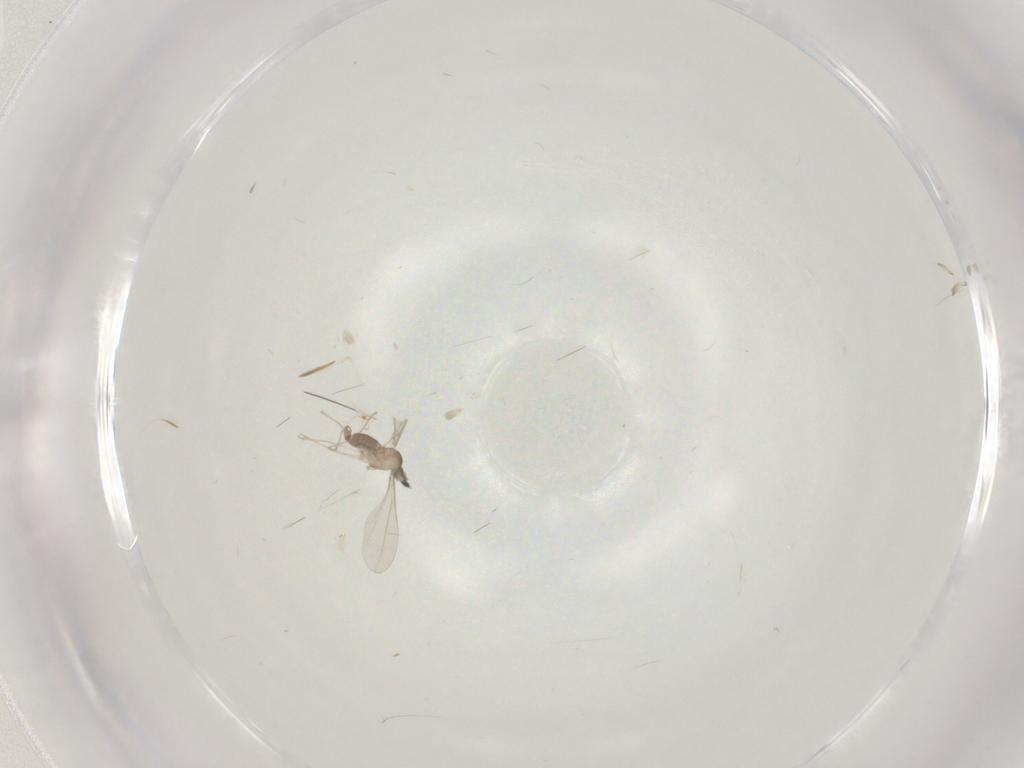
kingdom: Animalia
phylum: Arthropoda
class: Insecta
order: Diptera
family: Cecidomyiidae
